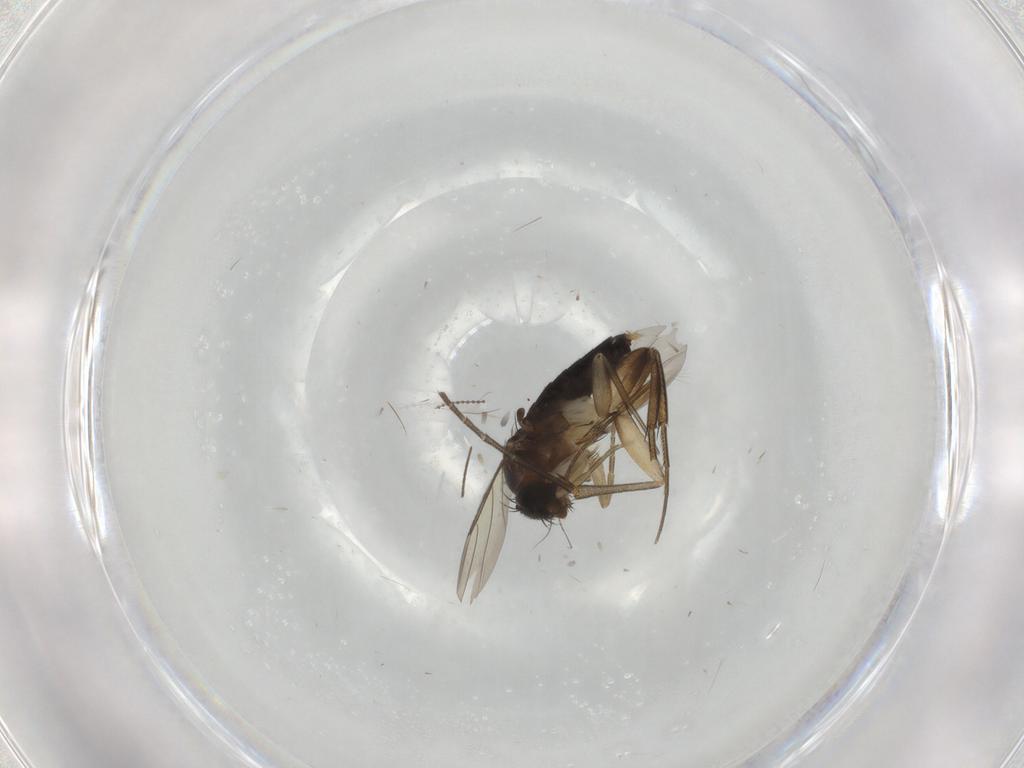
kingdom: Animalia
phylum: Arthropoda
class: Insecta
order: Diptera
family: Phoridae
